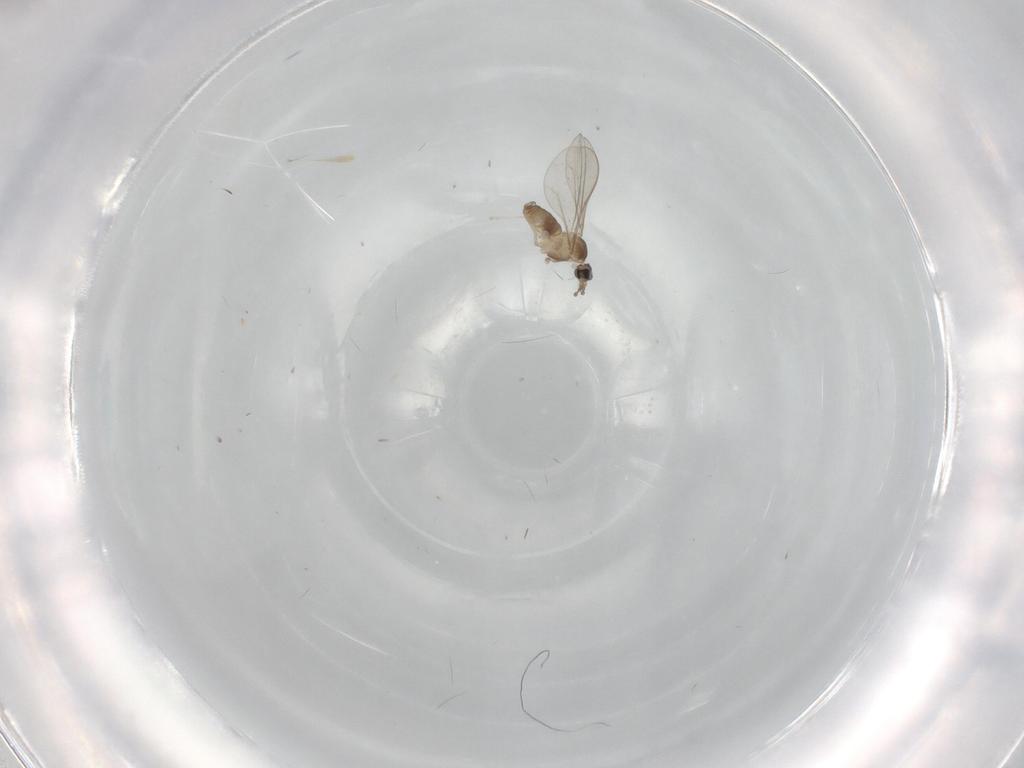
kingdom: Animalia
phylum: Arthropoda
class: Insecta
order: Diptera
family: Cecidomyiidae
